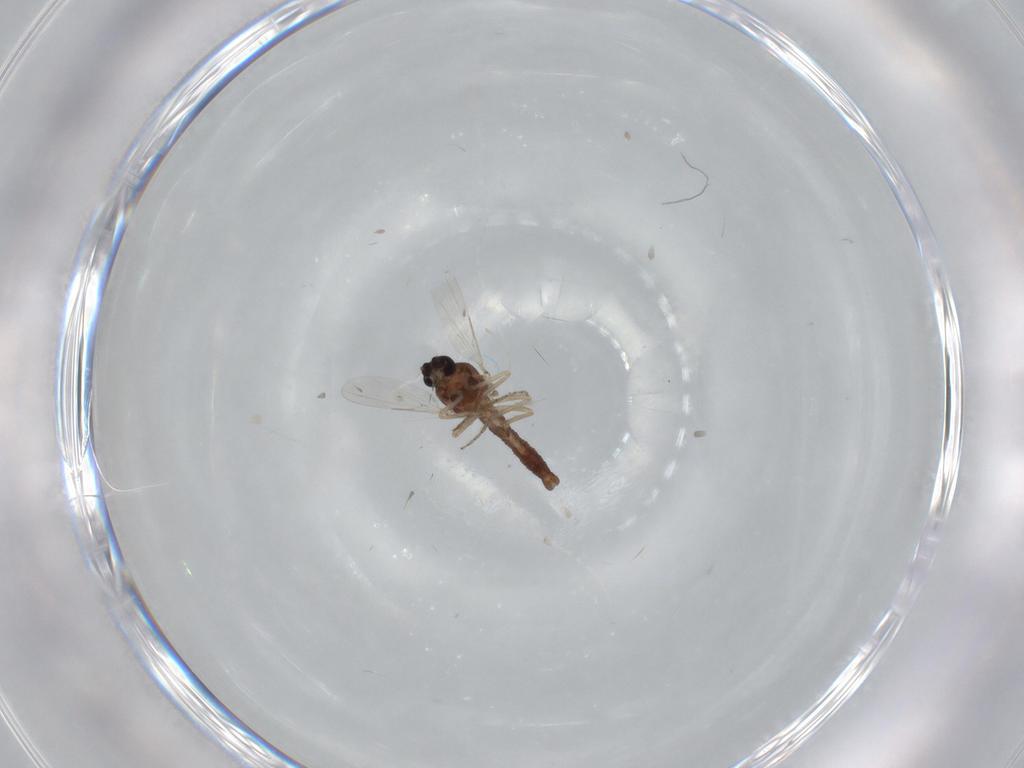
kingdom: Animalia
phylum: Arthropoda
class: Insecta
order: Diptera
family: Ceratopogonidae
